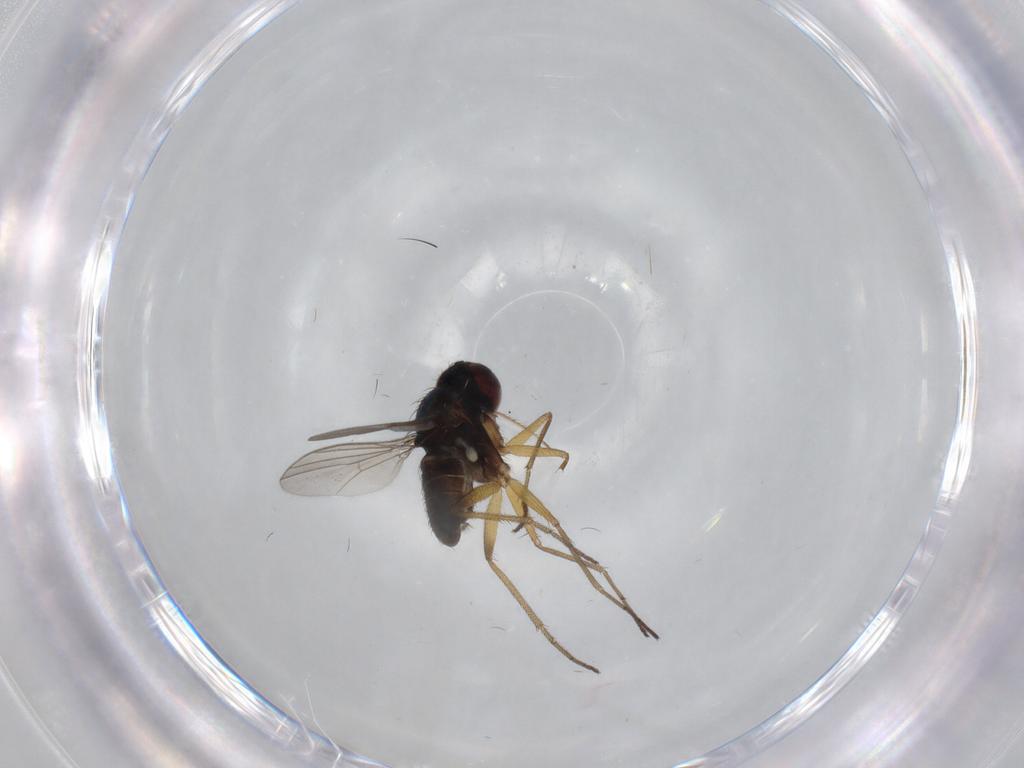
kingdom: Animalia
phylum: Arthropoda
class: Insecta
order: Diptera
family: Dolichopodidae
